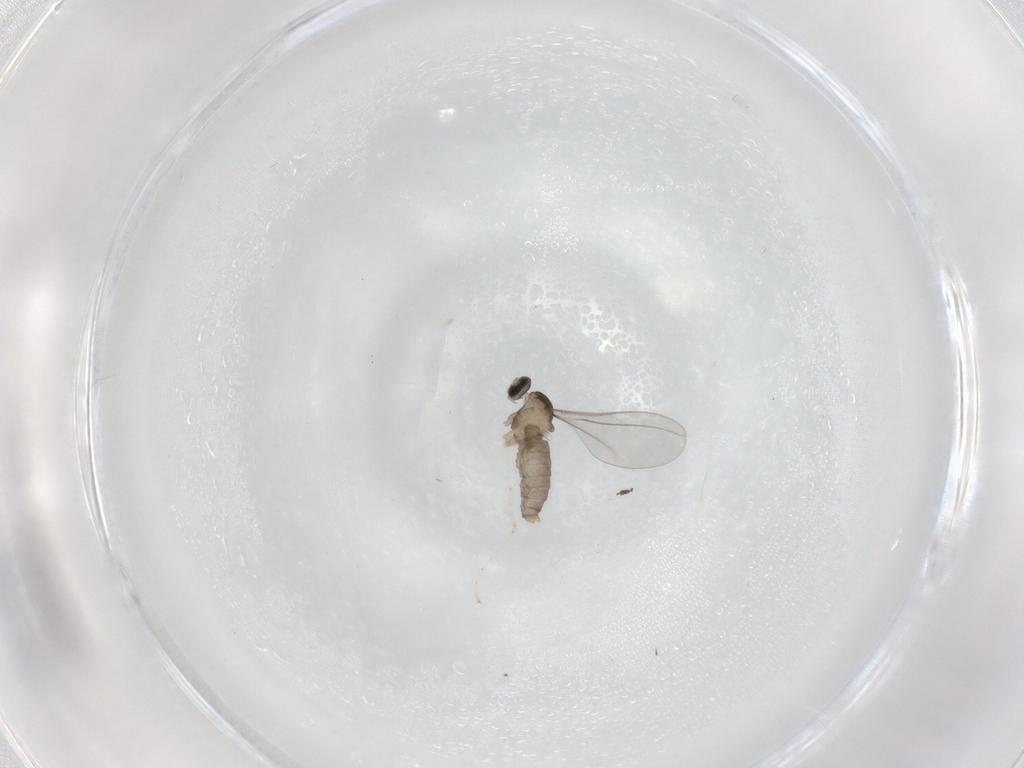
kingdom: Animalia
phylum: Arthropoda
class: Insecta
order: Diptera
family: Cecidomyiidae
